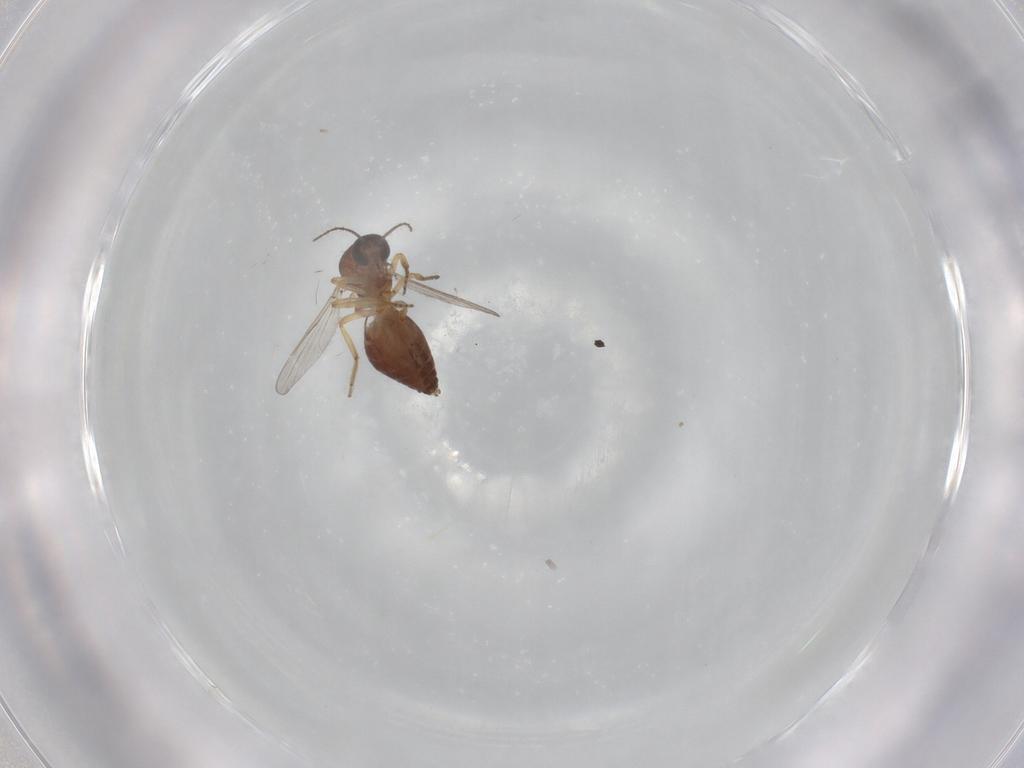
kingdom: Animalia
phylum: Arthropoda
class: Insecta
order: Diptera
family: Ceratopogonidae
